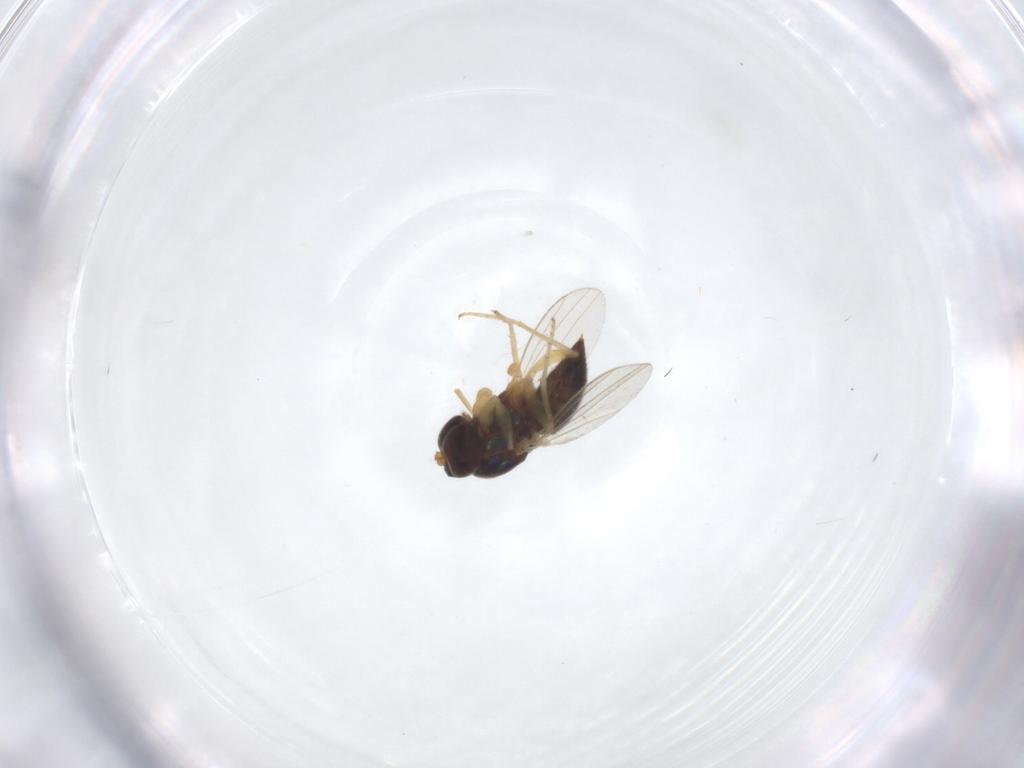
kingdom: Animalia
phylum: Arthropoda
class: Insecta
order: Diptera
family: Dolichopodidae
